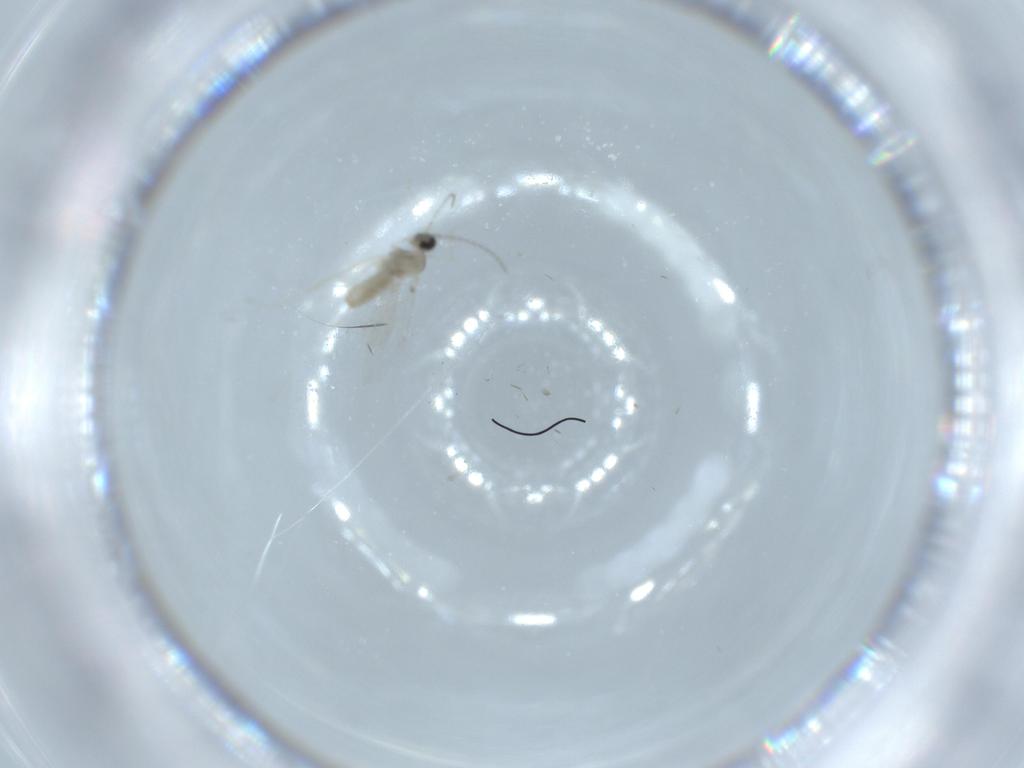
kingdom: Animalia
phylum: Arthropoda
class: Insecta
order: Diptera
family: Cecidomyiidae
